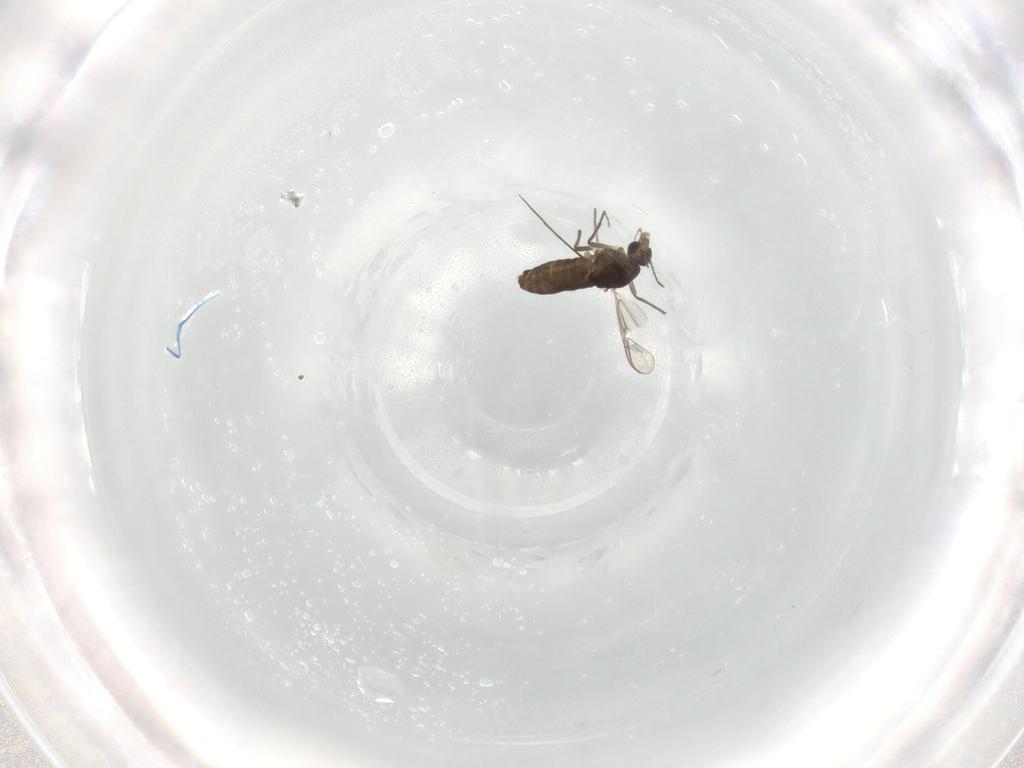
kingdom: Animalia
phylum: Arthropoda
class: Insecta
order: Diptera
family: Chironomidae
